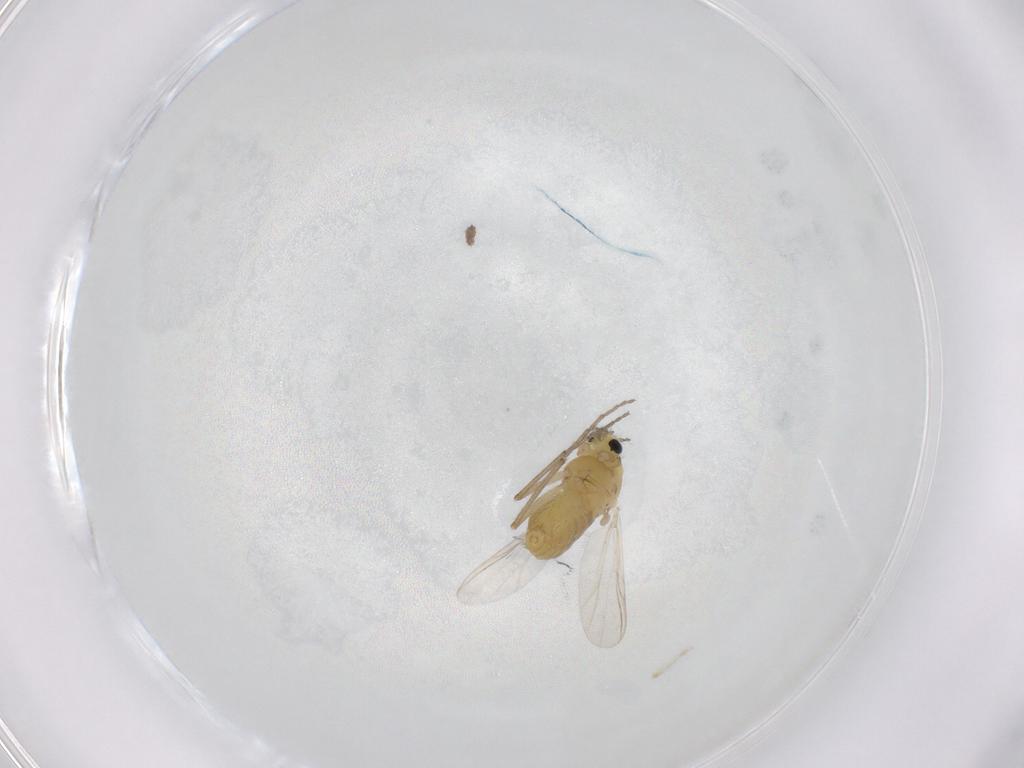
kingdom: Animalia
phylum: Arthropoda
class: Insecta
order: Diptera
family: Chironomidae
